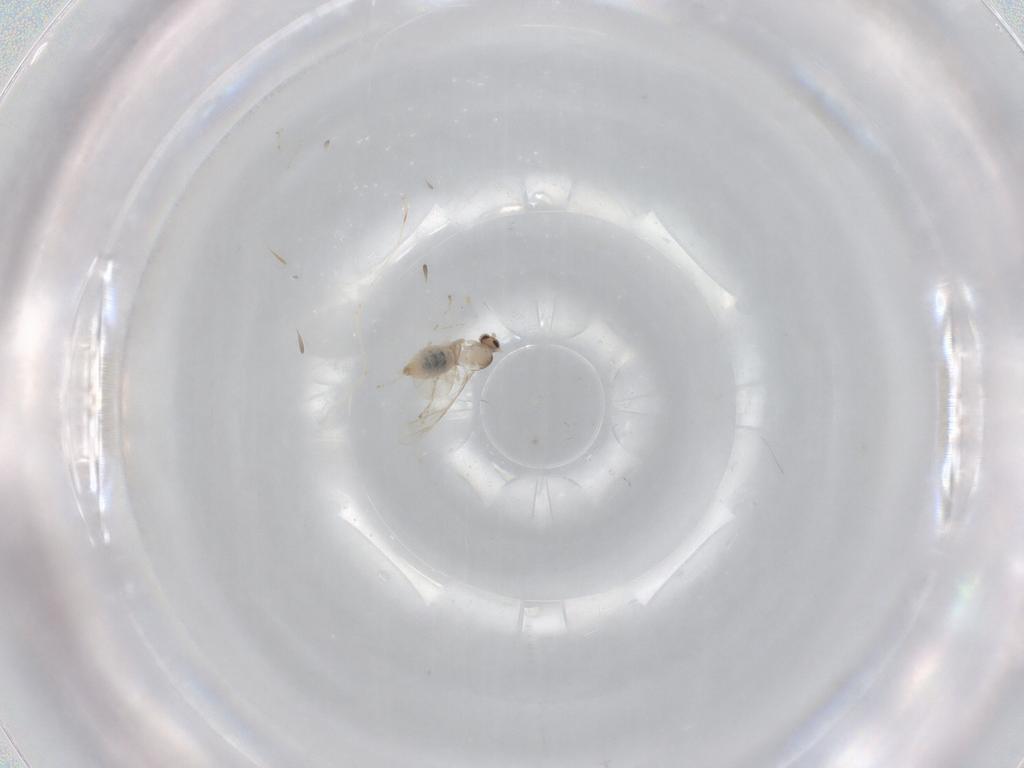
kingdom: Animalia
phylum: Arthropoda
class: Insecta
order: Diptera
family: Cecidomyiidae
